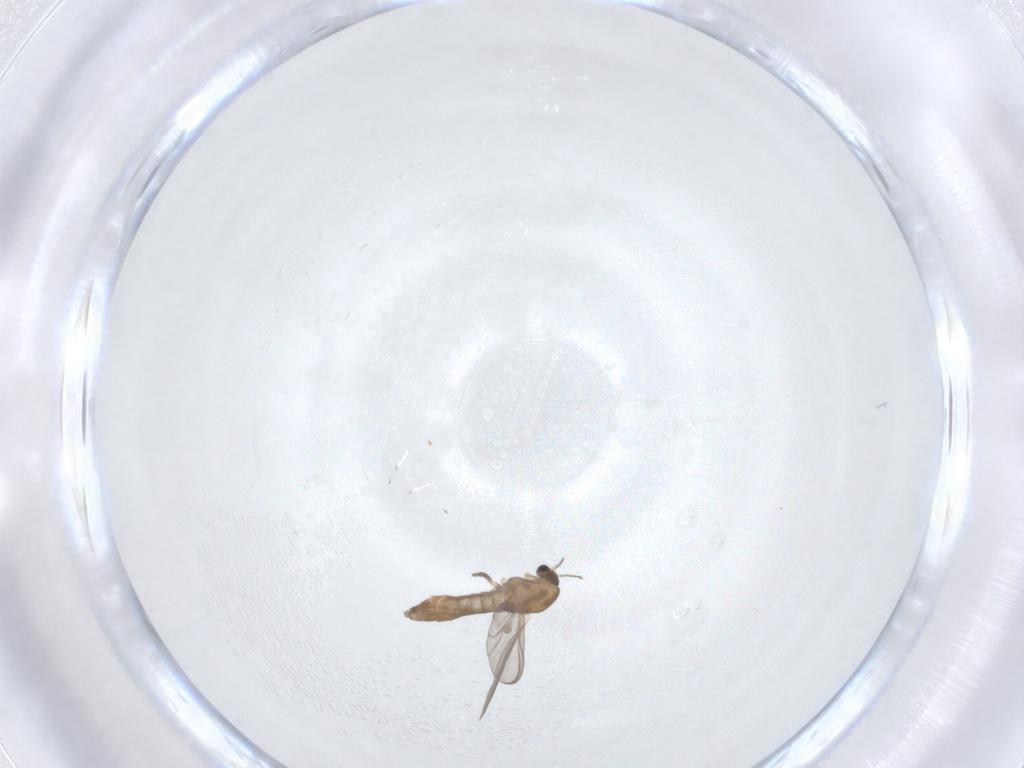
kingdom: Animalia
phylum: Arthropoda
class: Insecta
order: Diptera
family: Chironomidae
